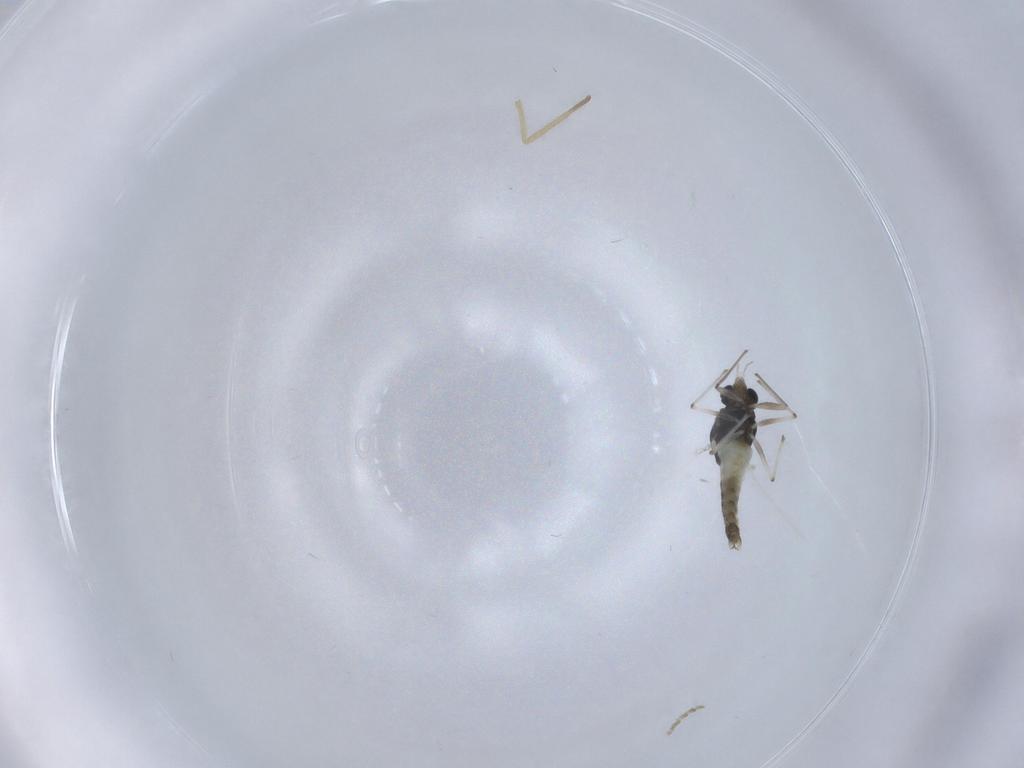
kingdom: Animalia
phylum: Arthropoda
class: Insecta
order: Diptera
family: Chironomidae
